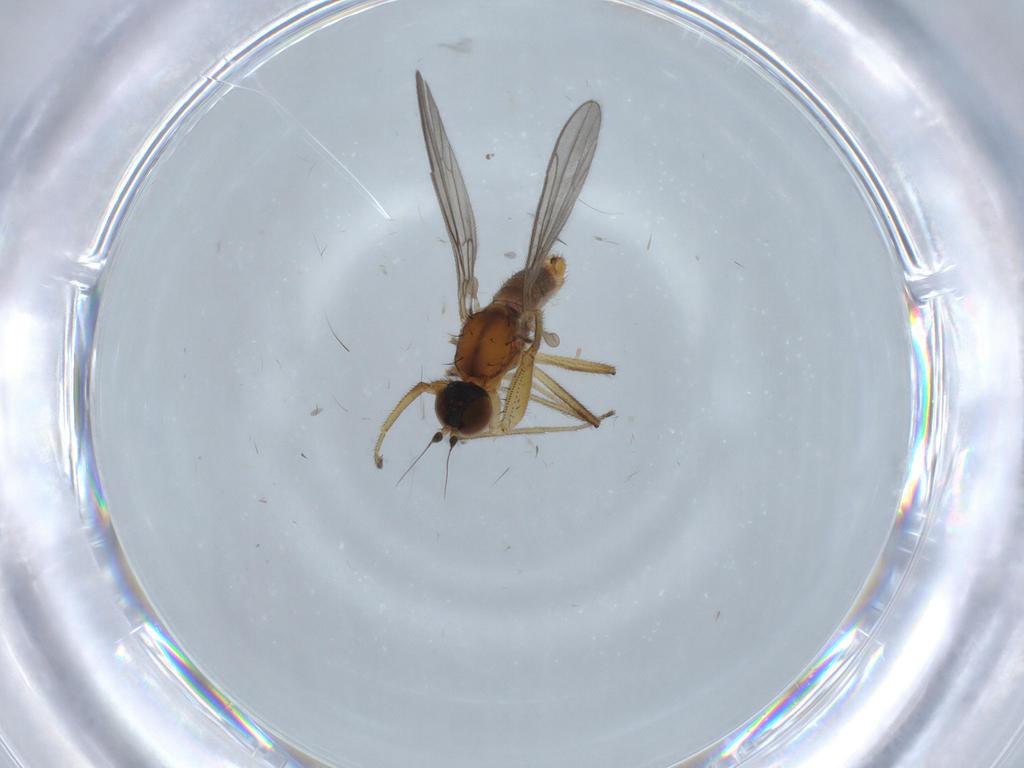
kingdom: Animalia
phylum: Arthropoda
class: Insecta
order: Diptera
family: Empididae
